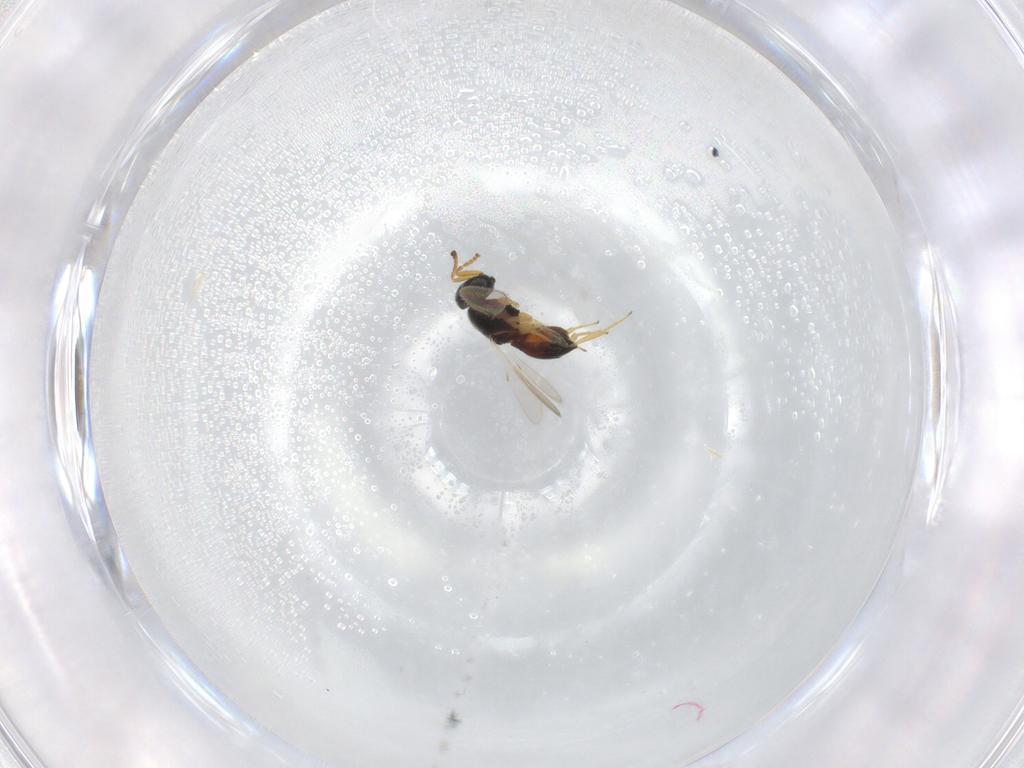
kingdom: Animalia
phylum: Arthropoda
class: Insecta
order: Hymenoptera
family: Scelionidae
